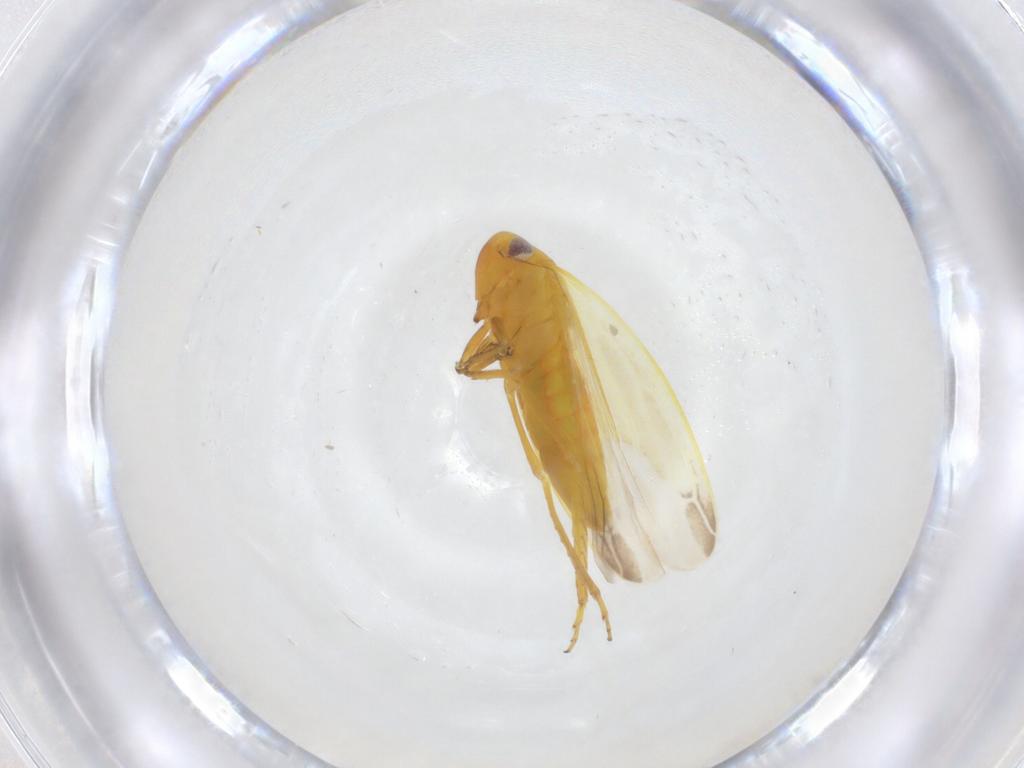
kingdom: Animalia
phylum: Arthropoda
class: Insecta
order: Hemiptera
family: Cicadellidae
